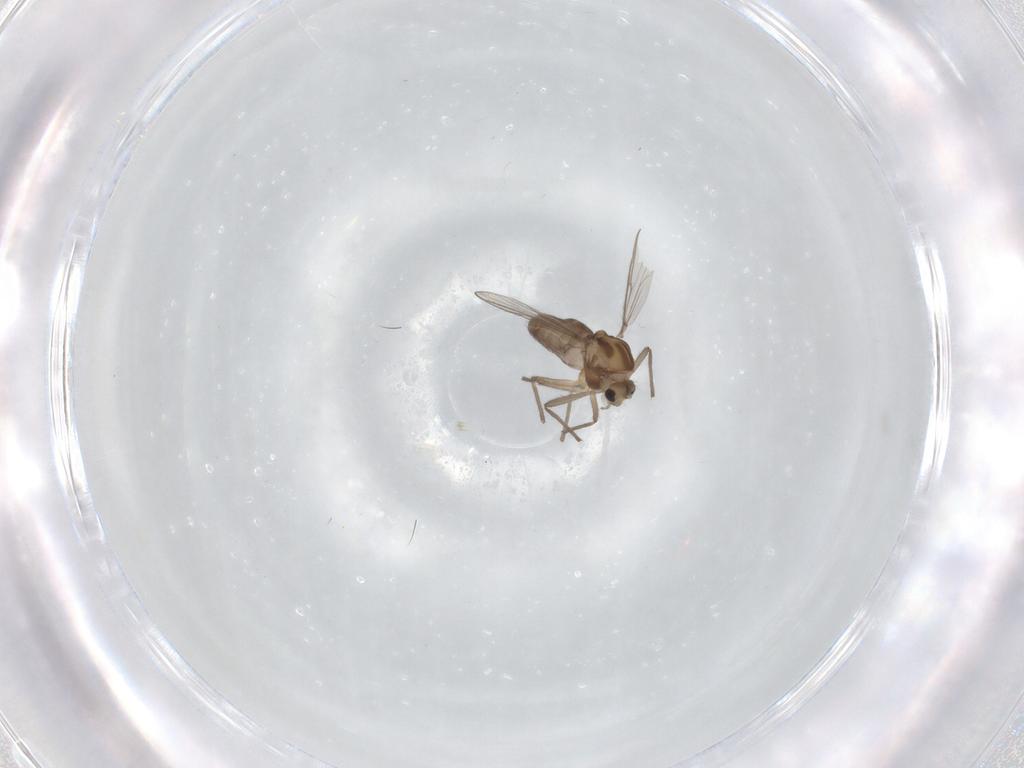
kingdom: Animalia
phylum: Arthropoda
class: Insecta
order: Diptera
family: Chironomidae
